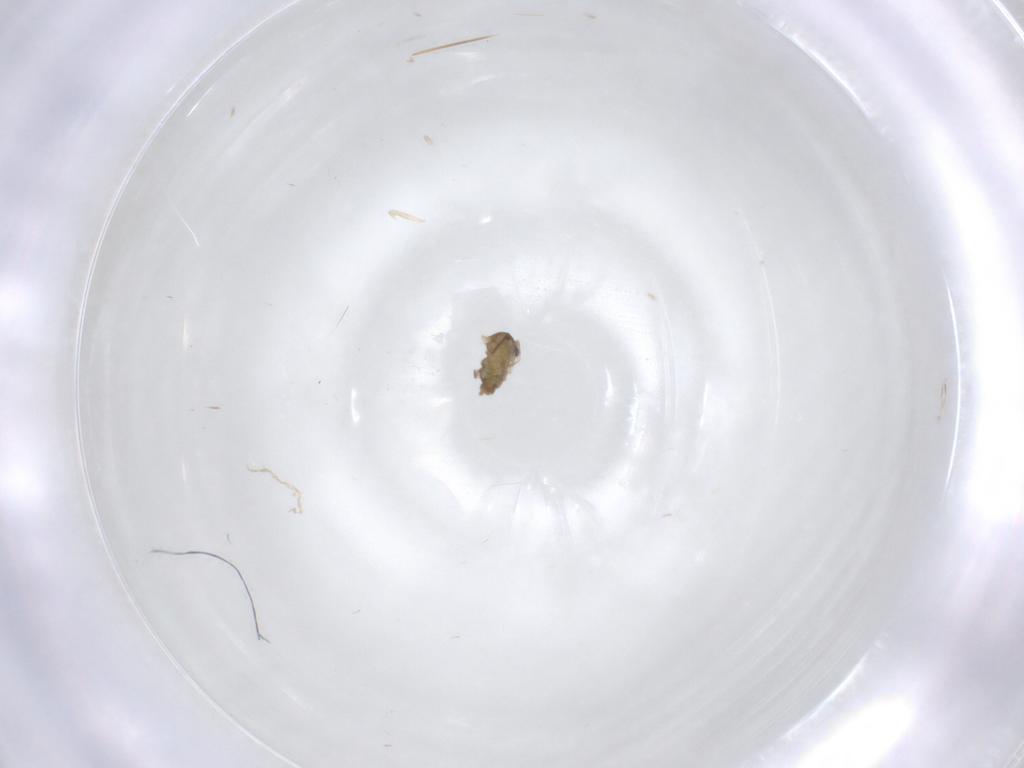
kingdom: Animalia
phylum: Arthropoda
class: Insecta
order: Diptera
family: Cecidomyiidae
